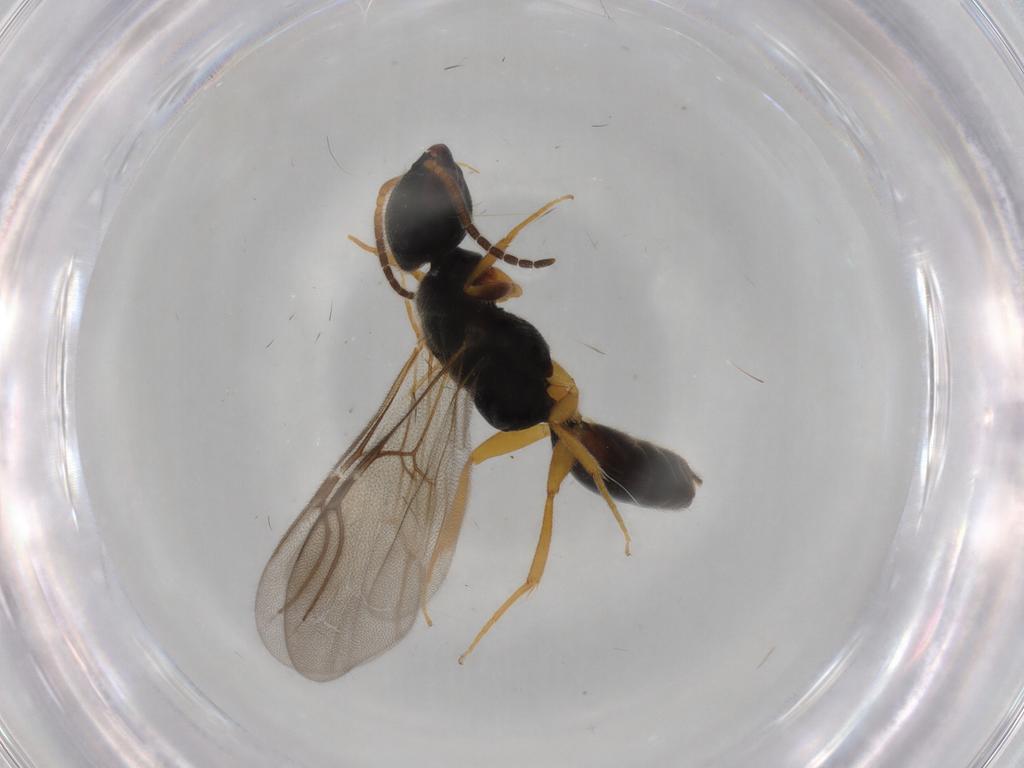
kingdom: Animalia
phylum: Arthropoda
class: Insecta
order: Hymenoptera
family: Bethylidae
